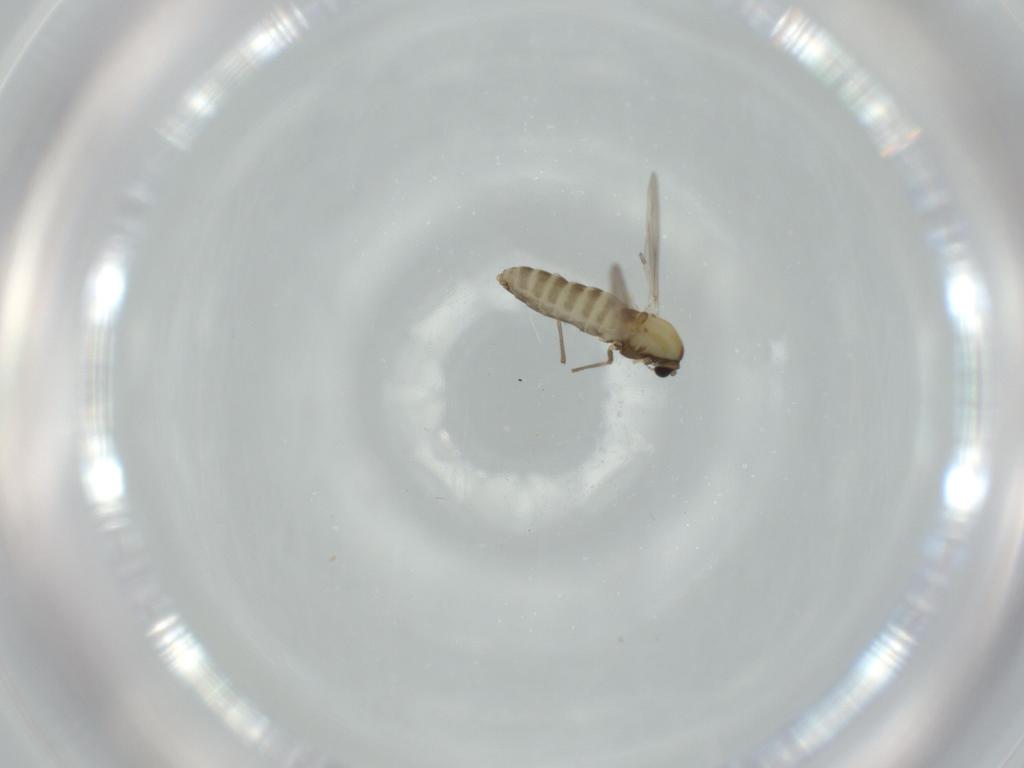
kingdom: Animalia
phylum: Arthropoda
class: Insecta
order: Diptera
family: Chironomidae
